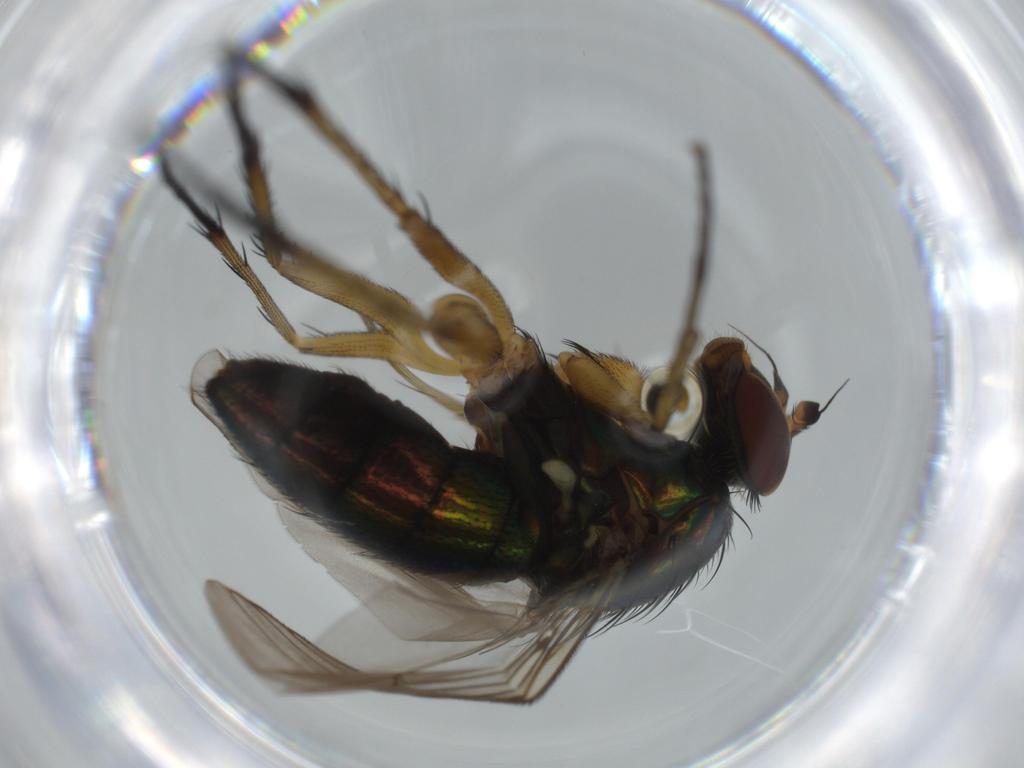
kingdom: Animalia
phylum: Arthropoda
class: Insecta
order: Diptera
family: Dolichopodidae
